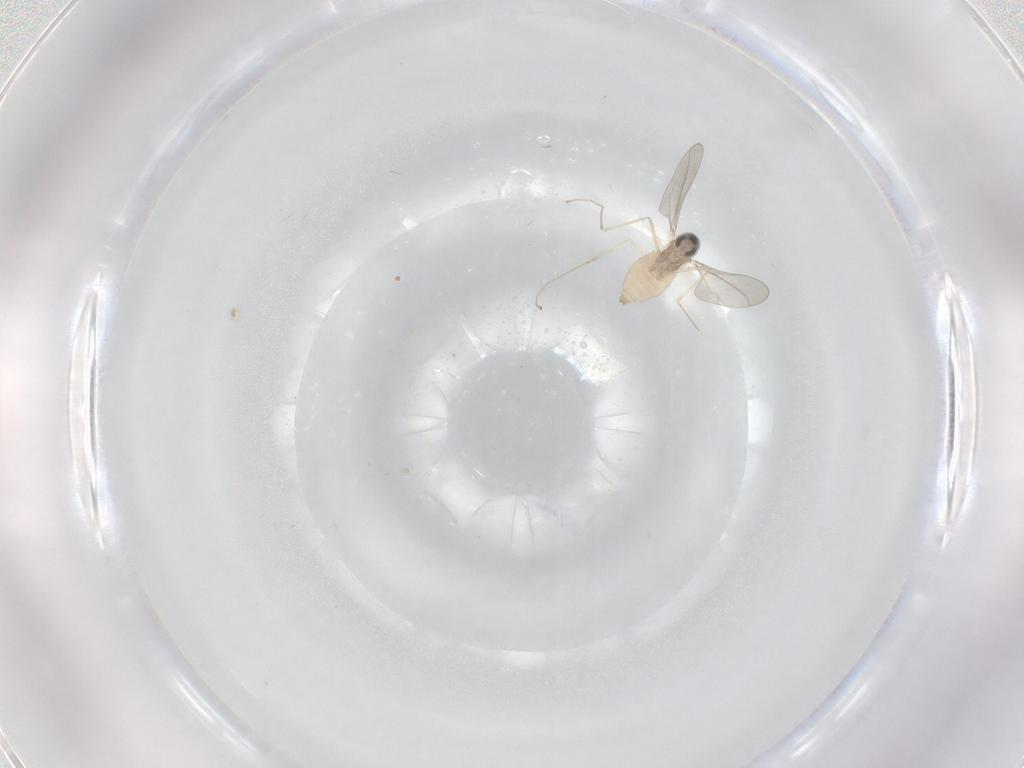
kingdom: Animalia
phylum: Arthropoda
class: Insecta
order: Diptera
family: Cecidomyiidae
